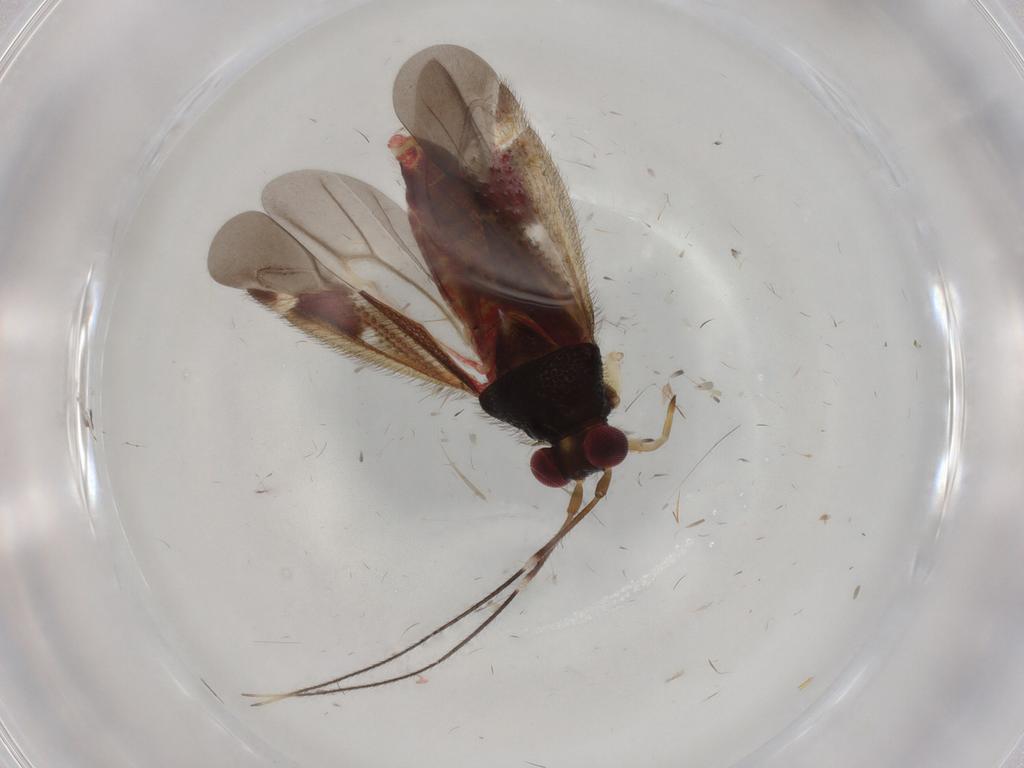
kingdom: Animalia
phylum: Arthropoda
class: Insecta
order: Hemiptera
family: Miridae
